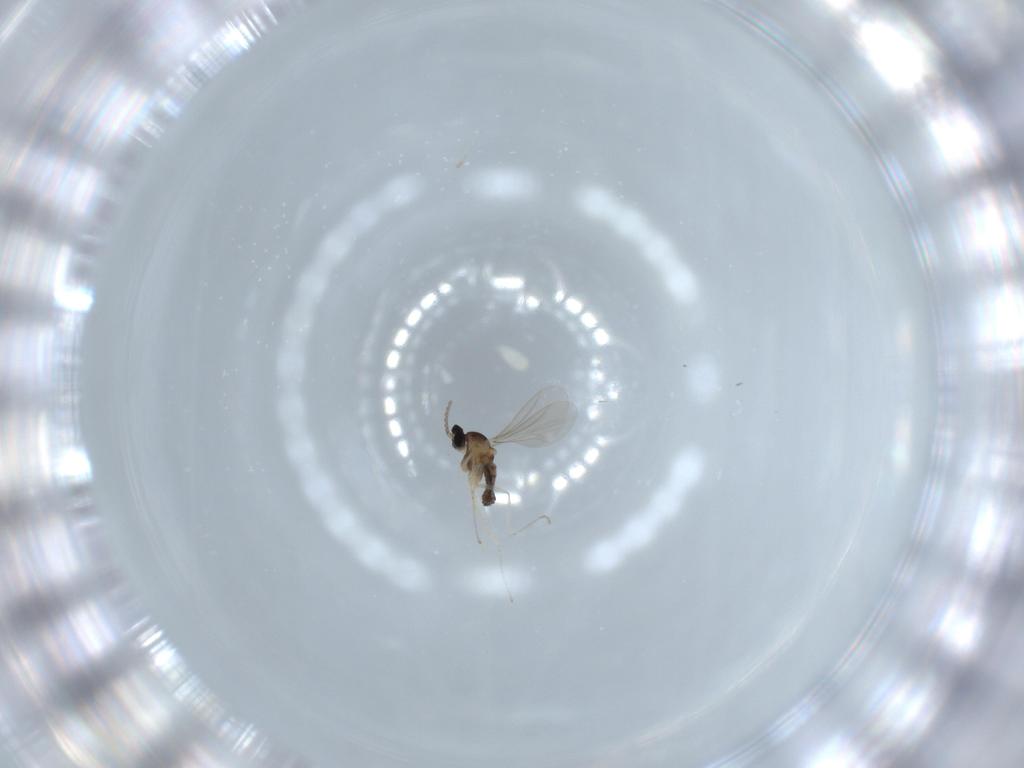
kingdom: Animalia
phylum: Arthropoda
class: Insecta
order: Diptera
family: Cecidomyiidae
